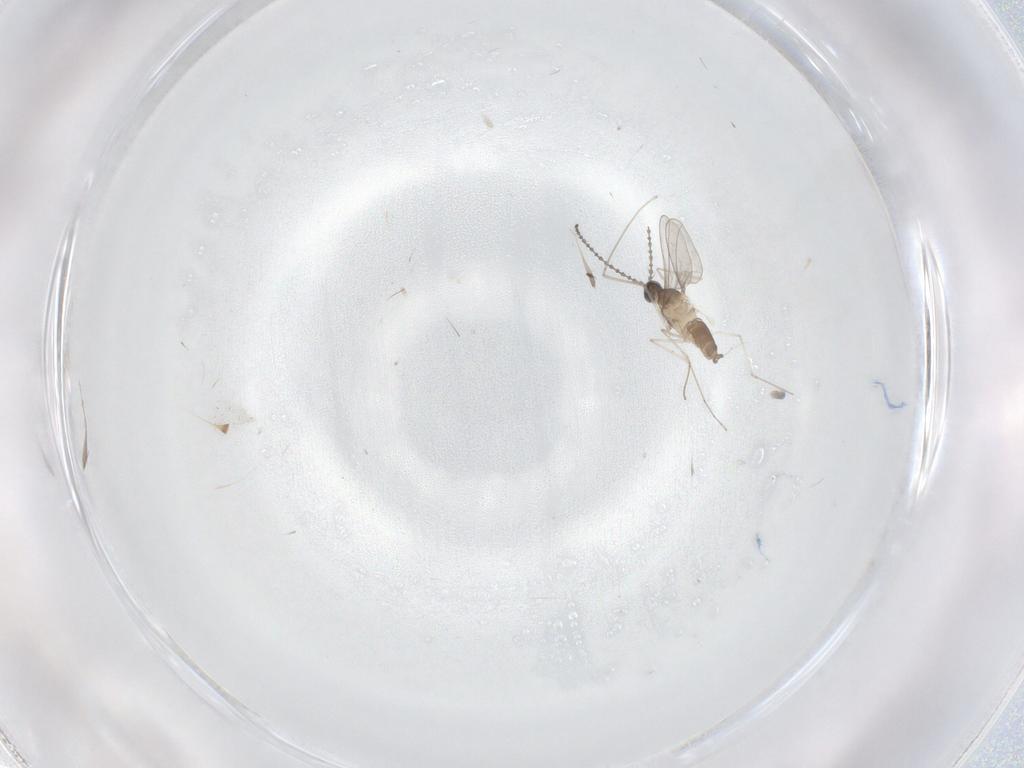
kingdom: Animalia
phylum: Arthropoda
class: Insecta
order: Diptera
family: Cecidomyiidae
